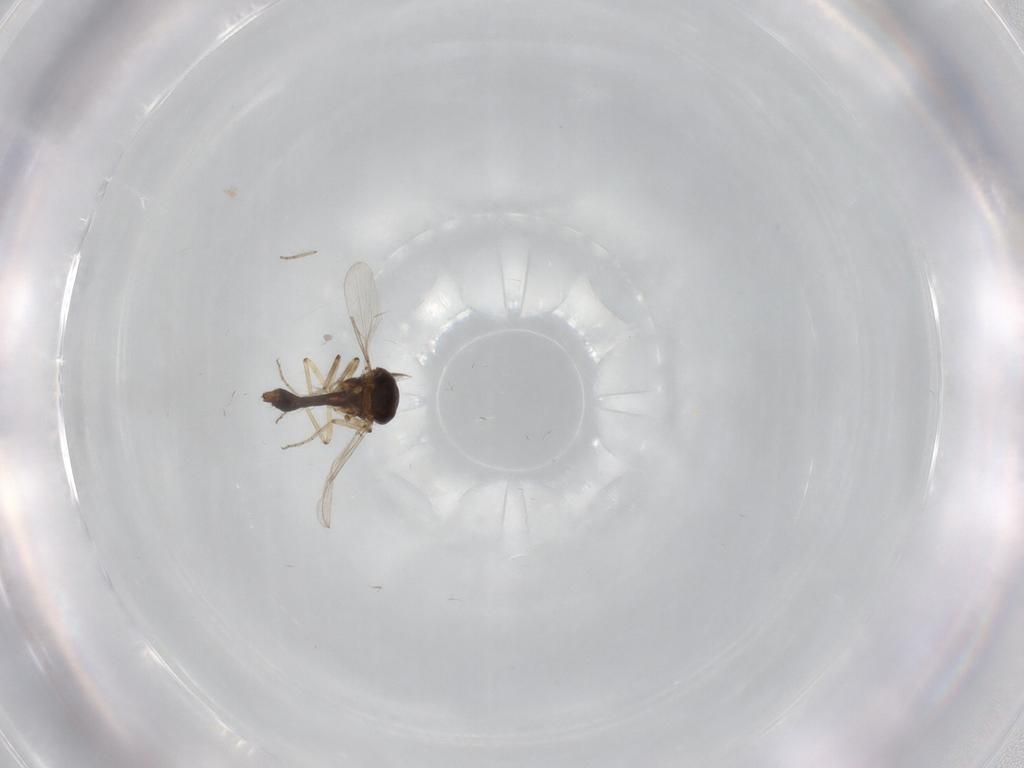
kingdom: Animalia
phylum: Arthropoda
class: Insecta
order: Diptera
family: Ceratopogonidae
